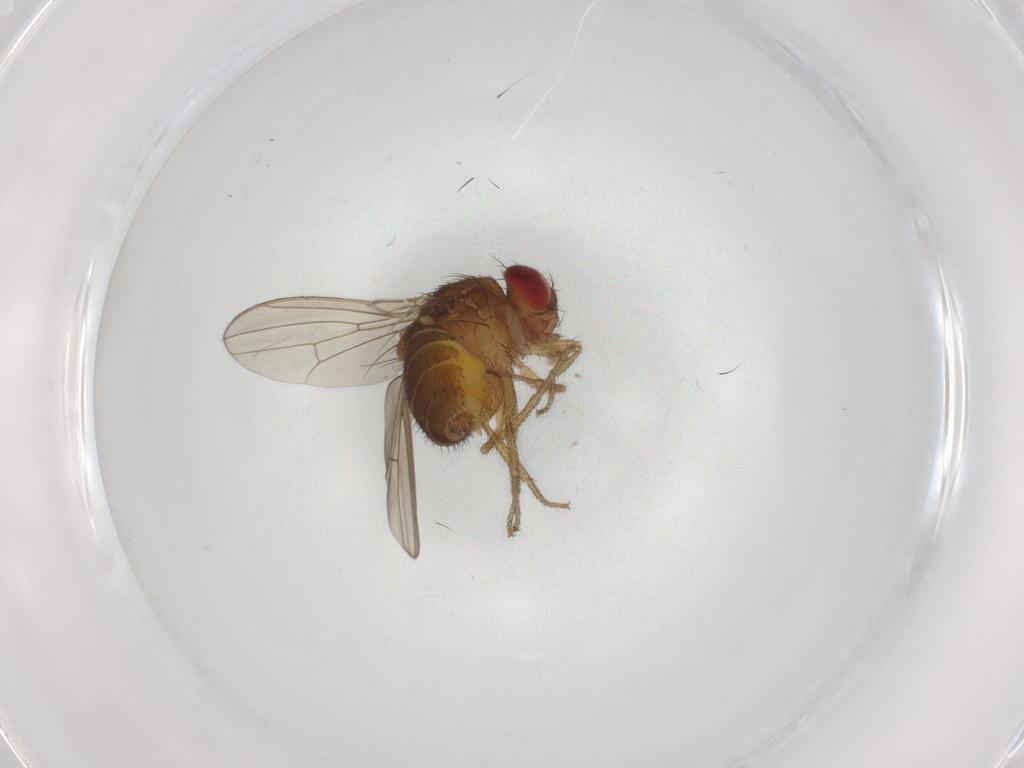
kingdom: Animalia
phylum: Arthropoda
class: Insecta
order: Diptera
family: Drosophilidae
